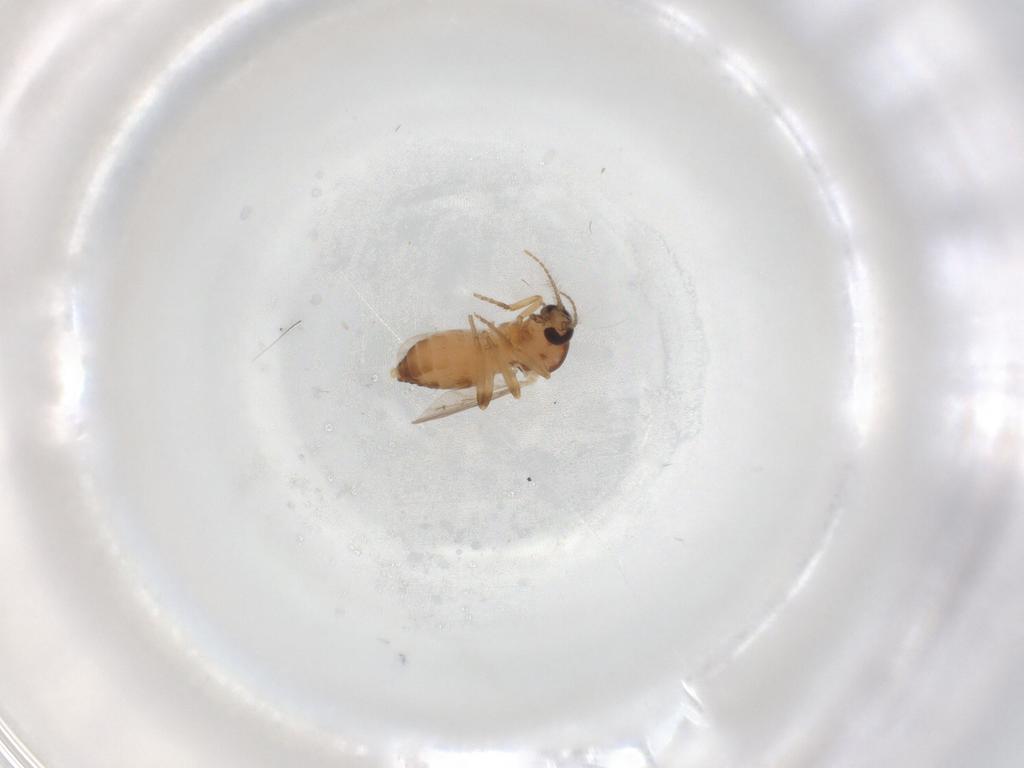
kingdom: Animalia
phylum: Arthropoda
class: Insecta
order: Diptera
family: Ceratopogonidae
